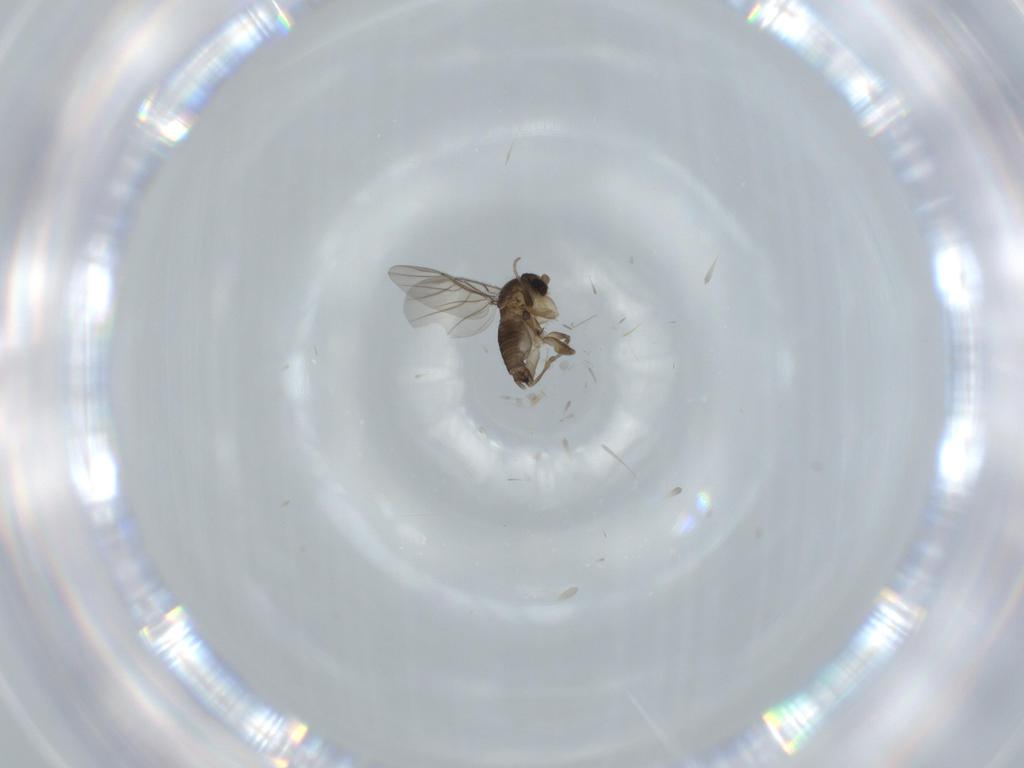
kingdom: Animalia
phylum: Arthropoda
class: Insecta
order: Diptera
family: Phoridae
